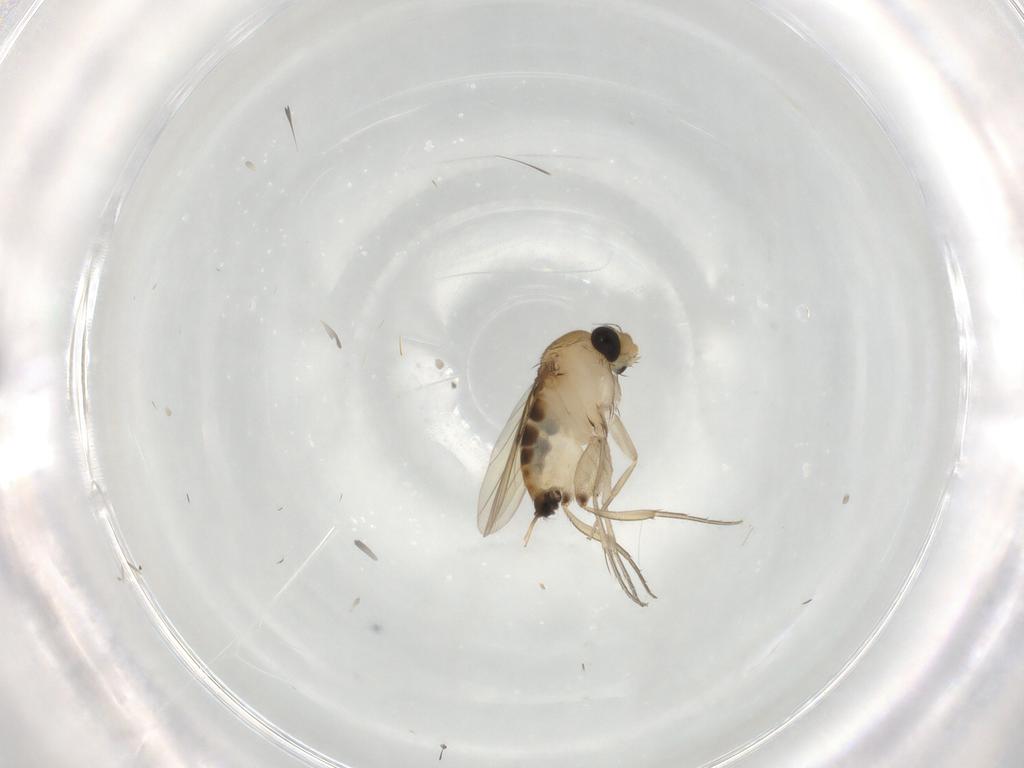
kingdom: Animalia
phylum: Arthropoda
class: Insecta
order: Diptera
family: Phoridae
